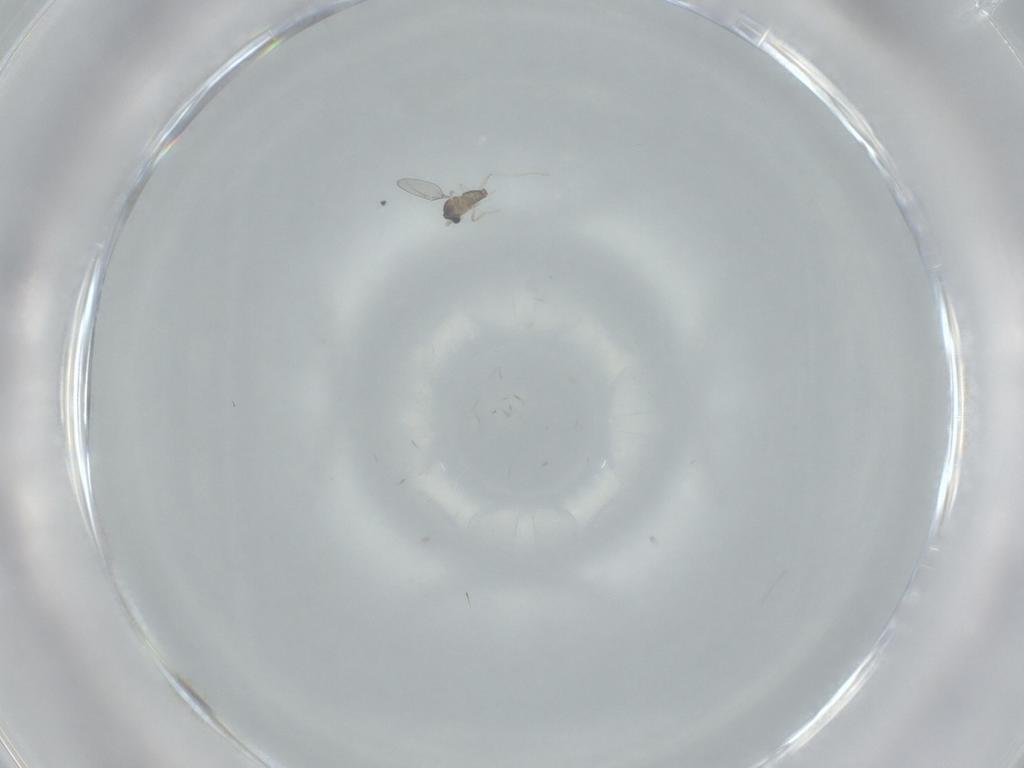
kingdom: Animalia
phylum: Arthropoda
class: Insecta
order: Diptera
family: Cecidomyiidae
